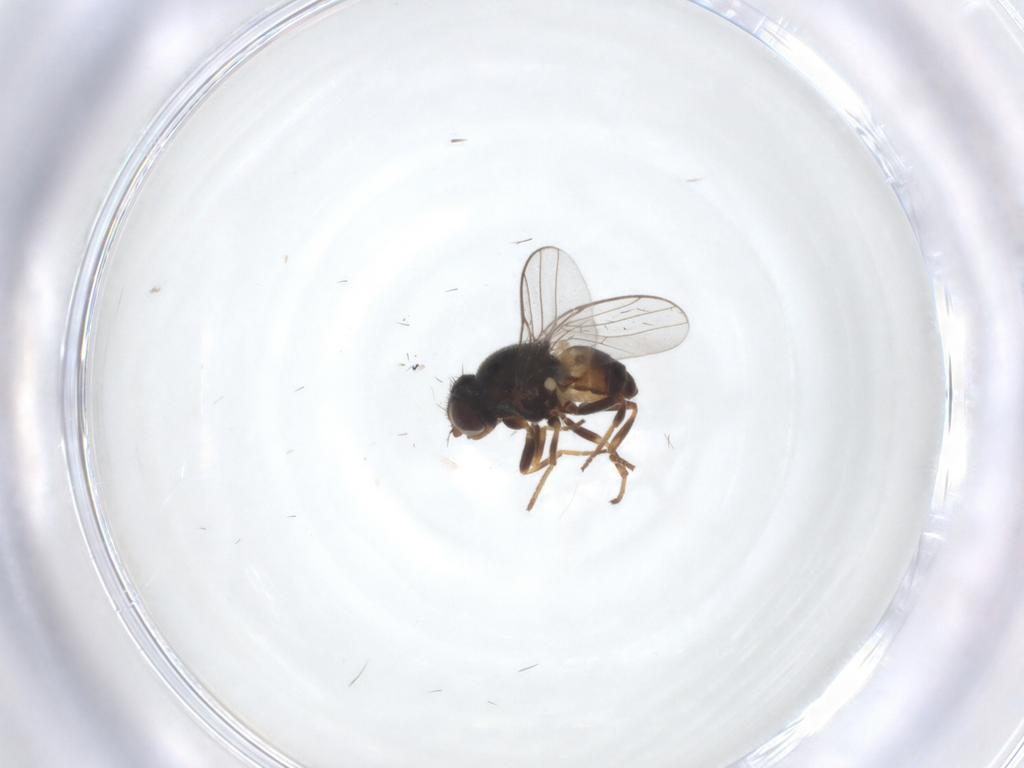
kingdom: Animalia
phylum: Arthropoda
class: Insecta
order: Diptera
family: Chloropidae
